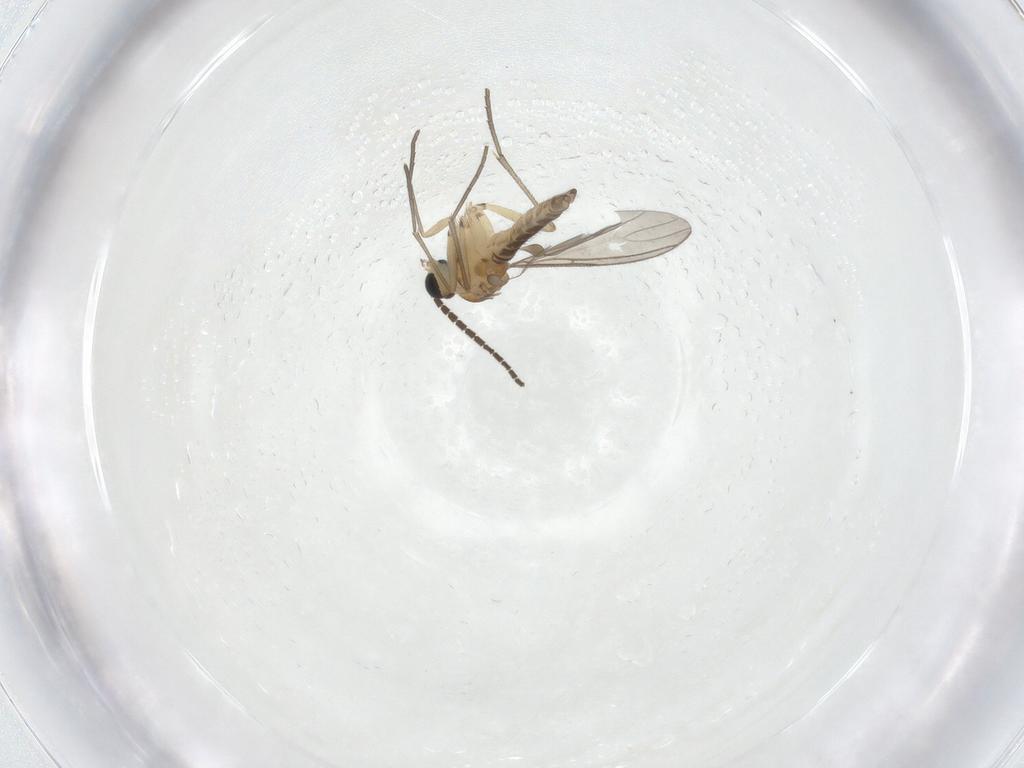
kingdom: Animalia
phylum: Arthropoda
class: Insecta
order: Diptera
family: Sciaridae
